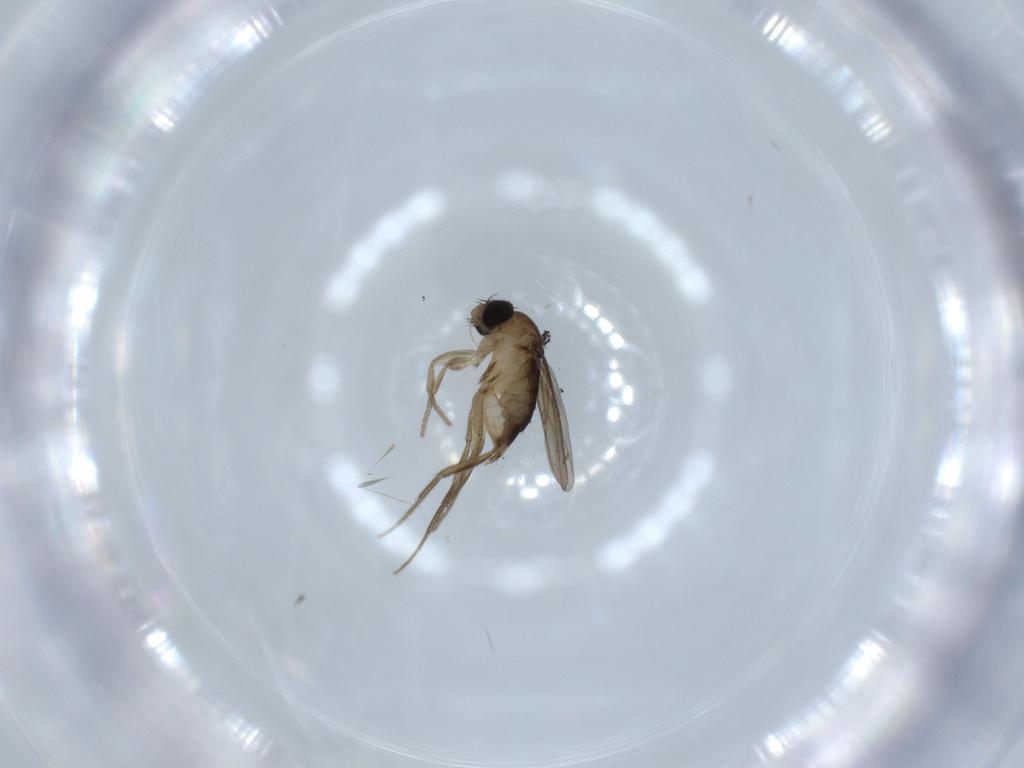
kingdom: Animalia
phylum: Arthropoda
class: Insecta
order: Diptera
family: Phoridae
